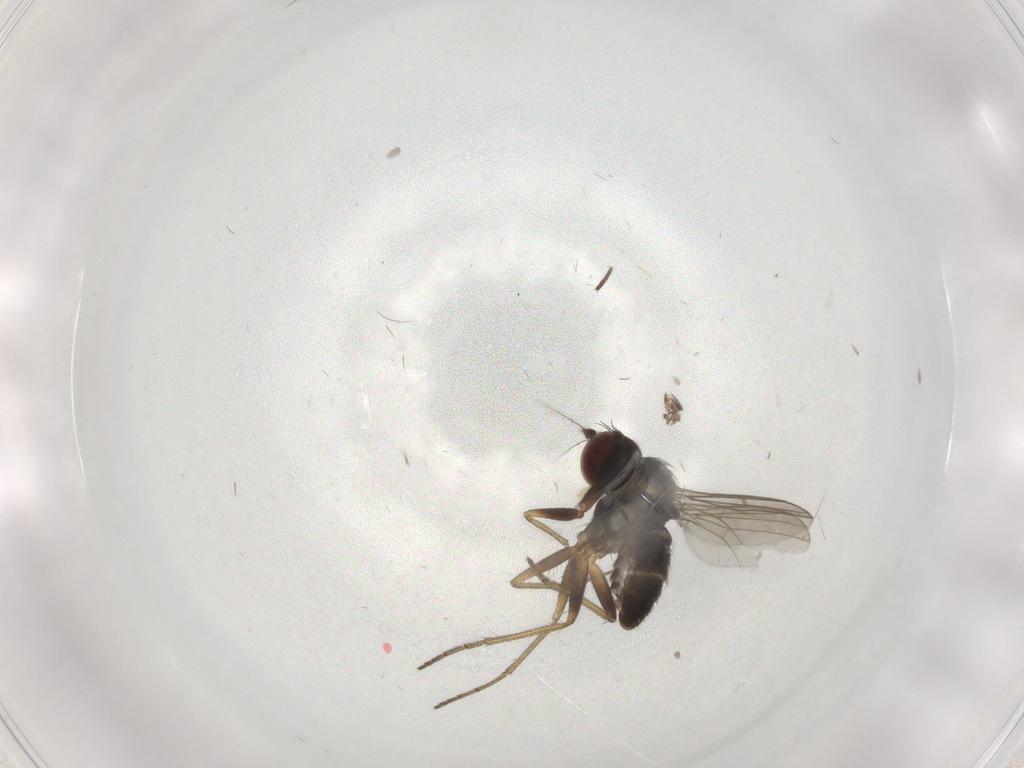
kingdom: Animalia
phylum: Arthropoda
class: Insecta
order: Diptera
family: Dolichopodidae
